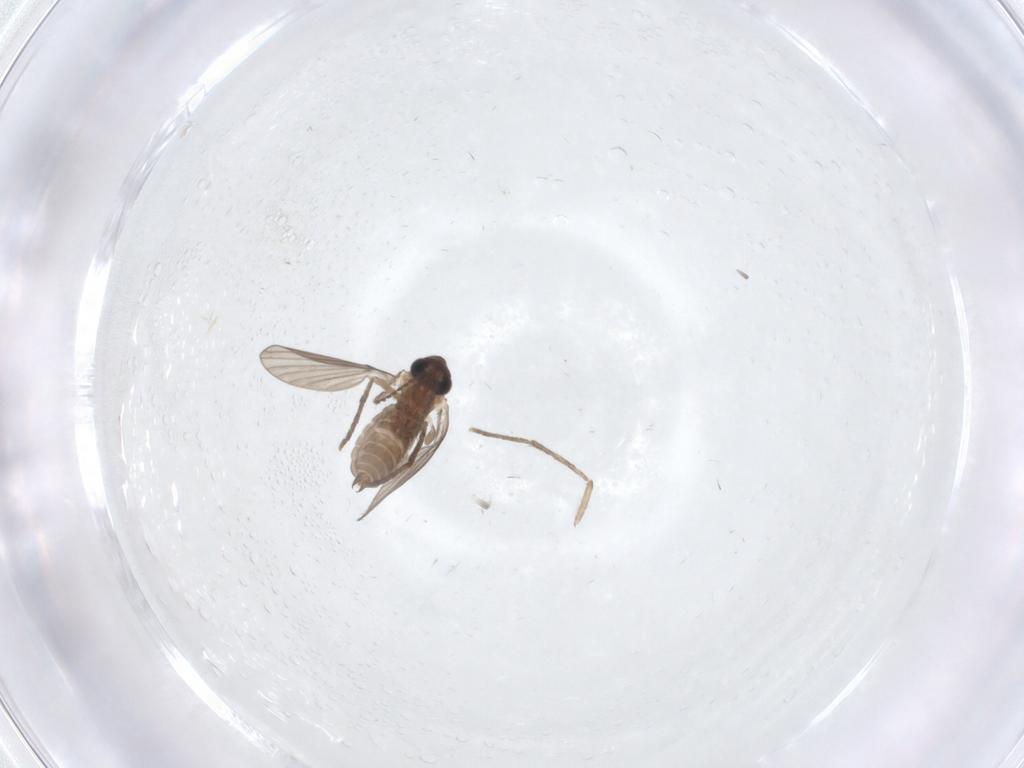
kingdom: Animalia
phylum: Arthropoda
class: Insecta
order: Diptera
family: Psychodidae
